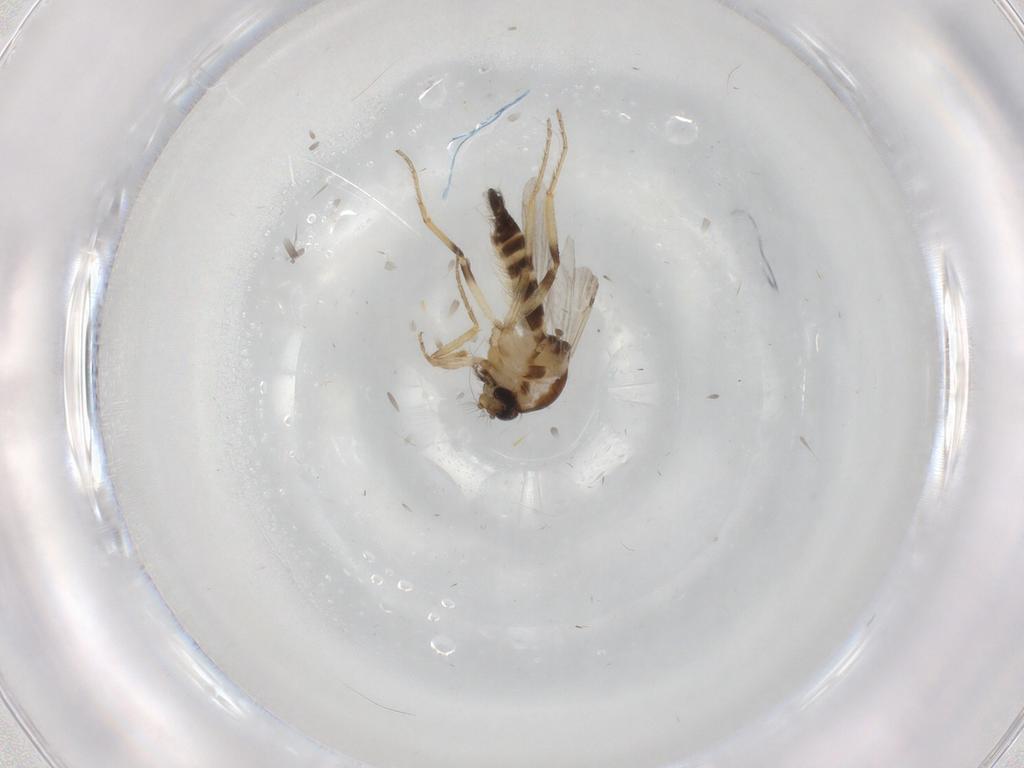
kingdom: Animalia
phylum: Arthropoda
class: Insecta
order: Diptera
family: Ceratopogonidae
